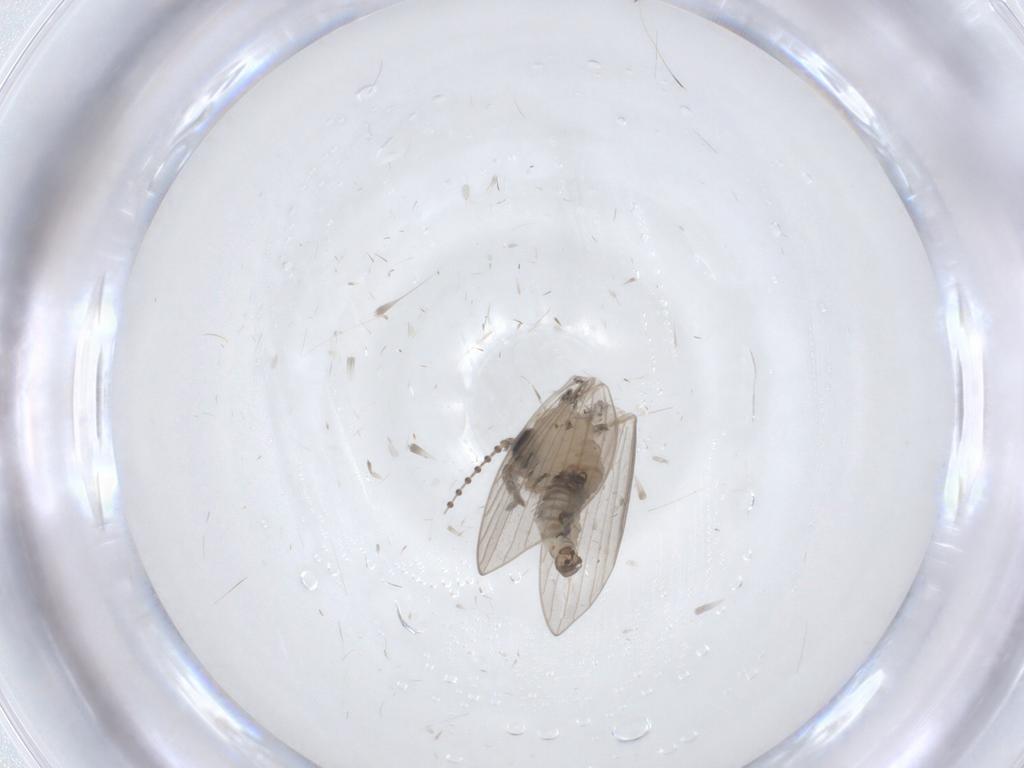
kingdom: Animalia
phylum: Arthropoda
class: Insecta
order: Diptera
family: Psychodidae
